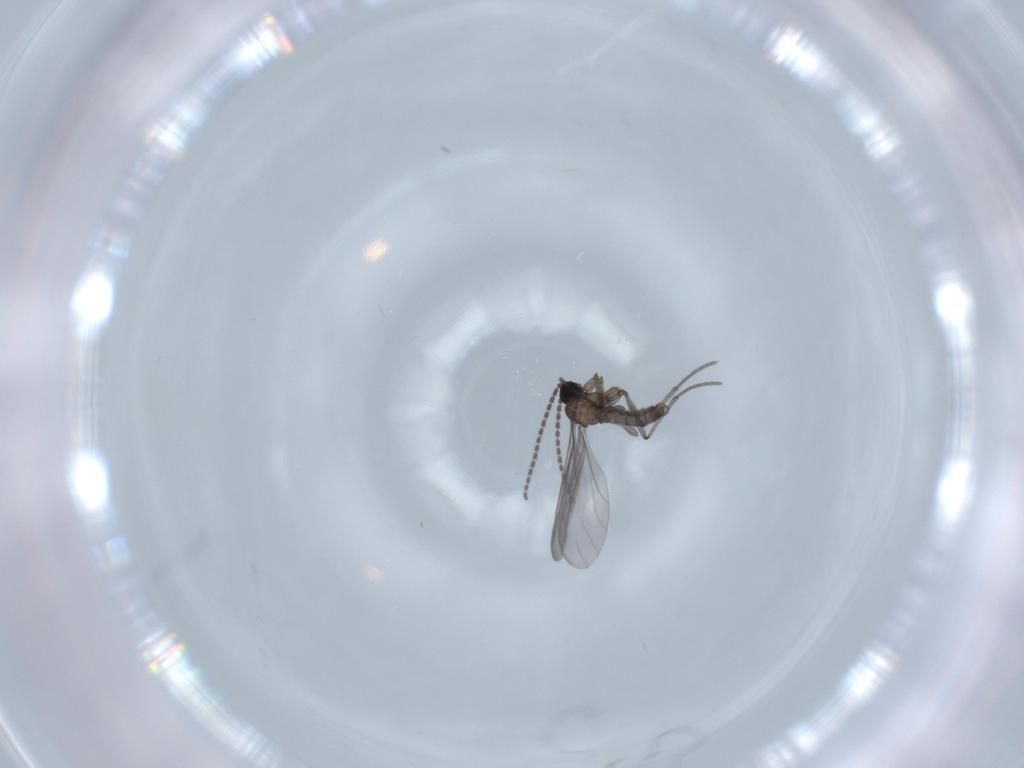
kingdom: Animalia
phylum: Arthropoda
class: Insecta
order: Diptera
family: Sciaridae
